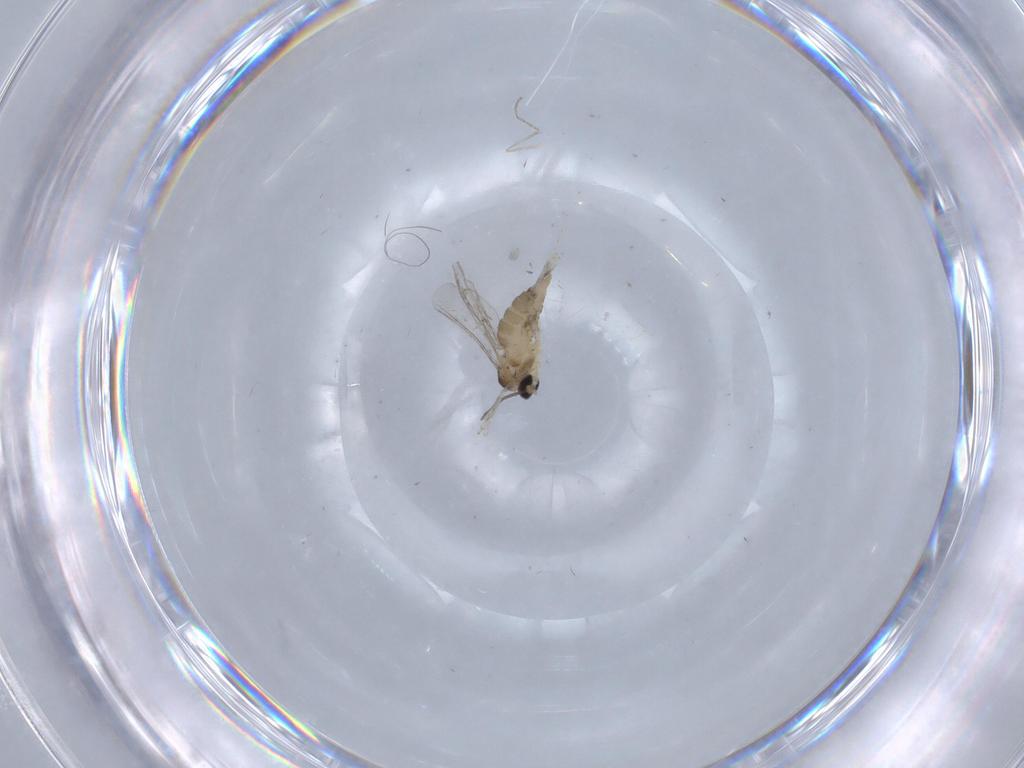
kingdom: Animalia
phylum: Arthropoda
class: Insecta
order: Diptera
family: Cecidomyiidae
